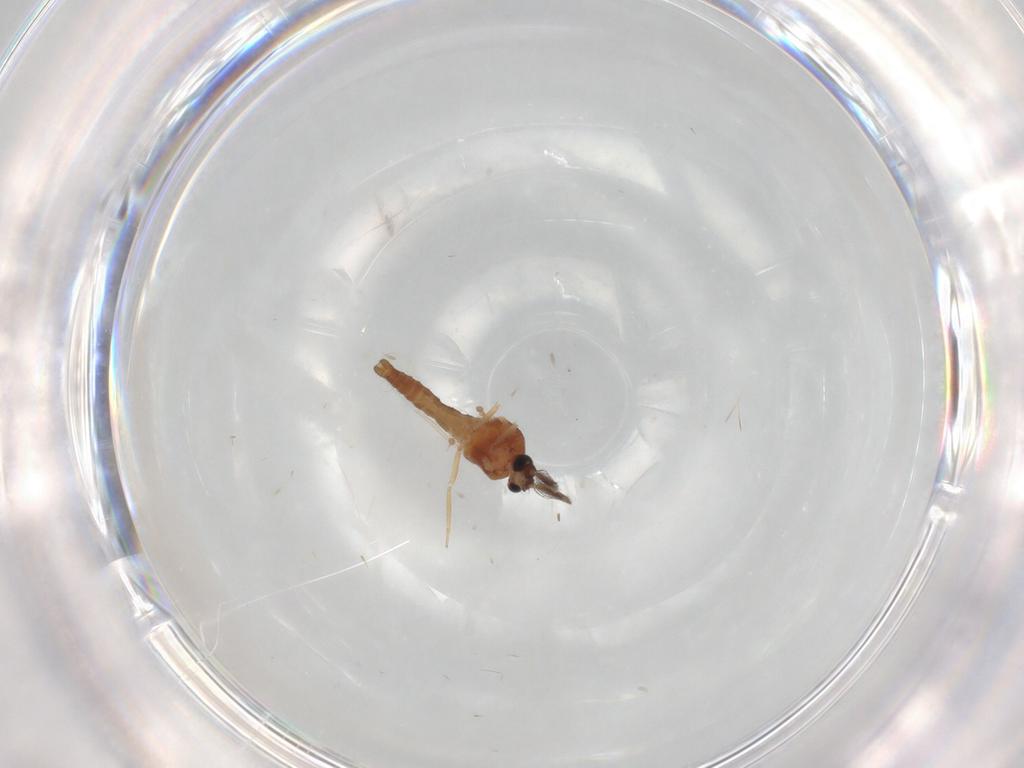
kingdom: Animalia
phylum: Arthropoda
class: Insecta
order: Diptera
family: Ceratopogonidae
